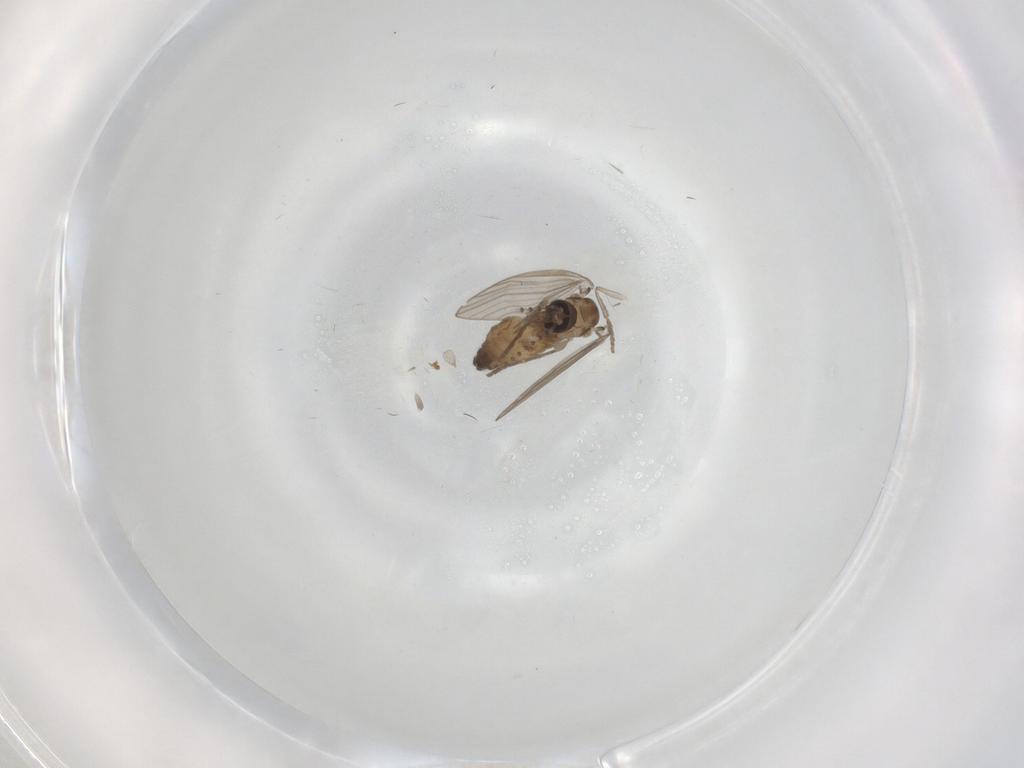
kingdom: Animalia
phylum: Arthropoda
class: Insecta
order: Diptera
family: Psychodidae
